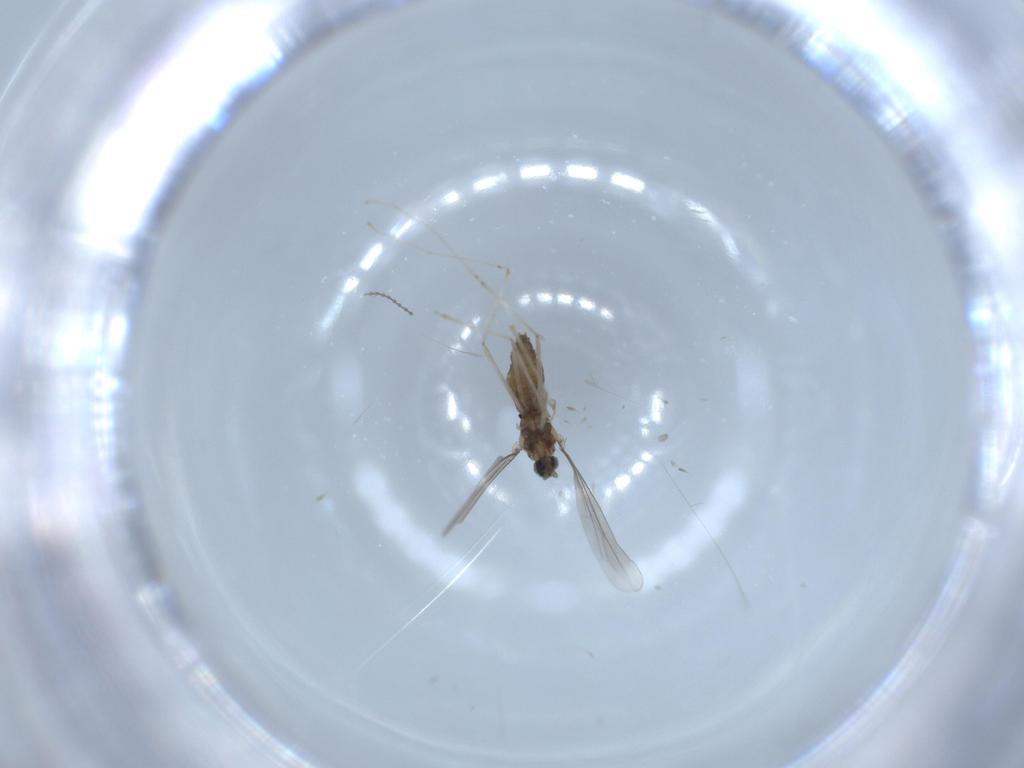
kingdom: Animalia
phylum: Arthropoda
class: Insecta
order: Diptera
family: Cecidomyiidae
